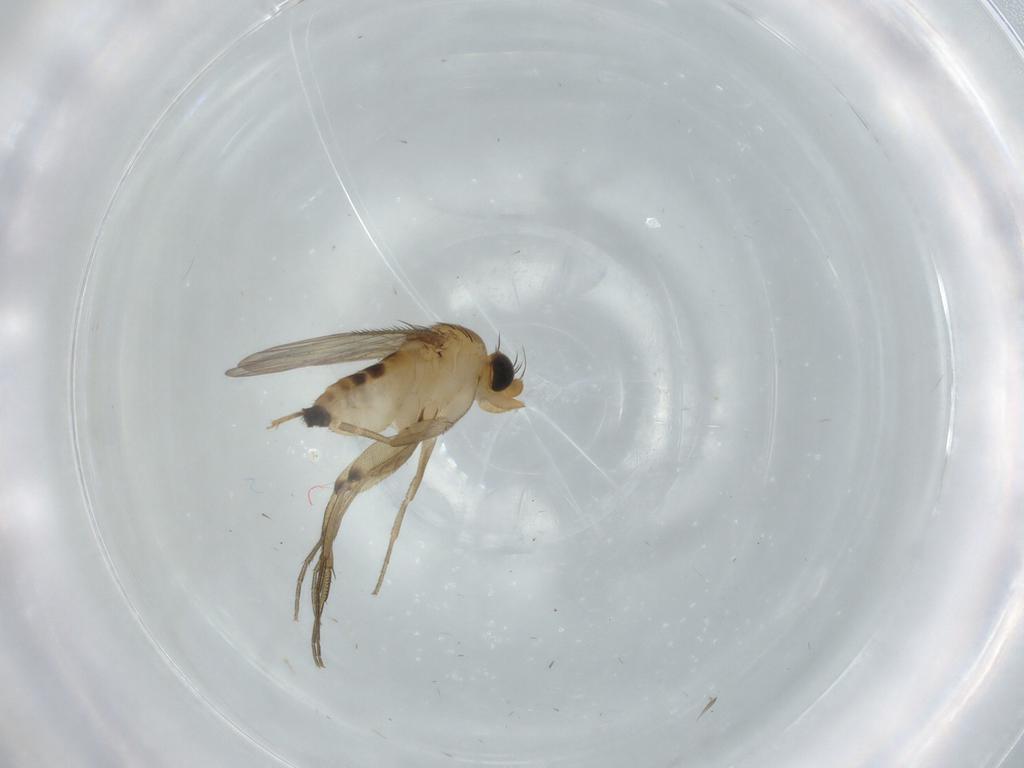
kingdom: Animalia
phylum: Arthropoda
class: Insecta
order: Diptera
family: Phoridae
